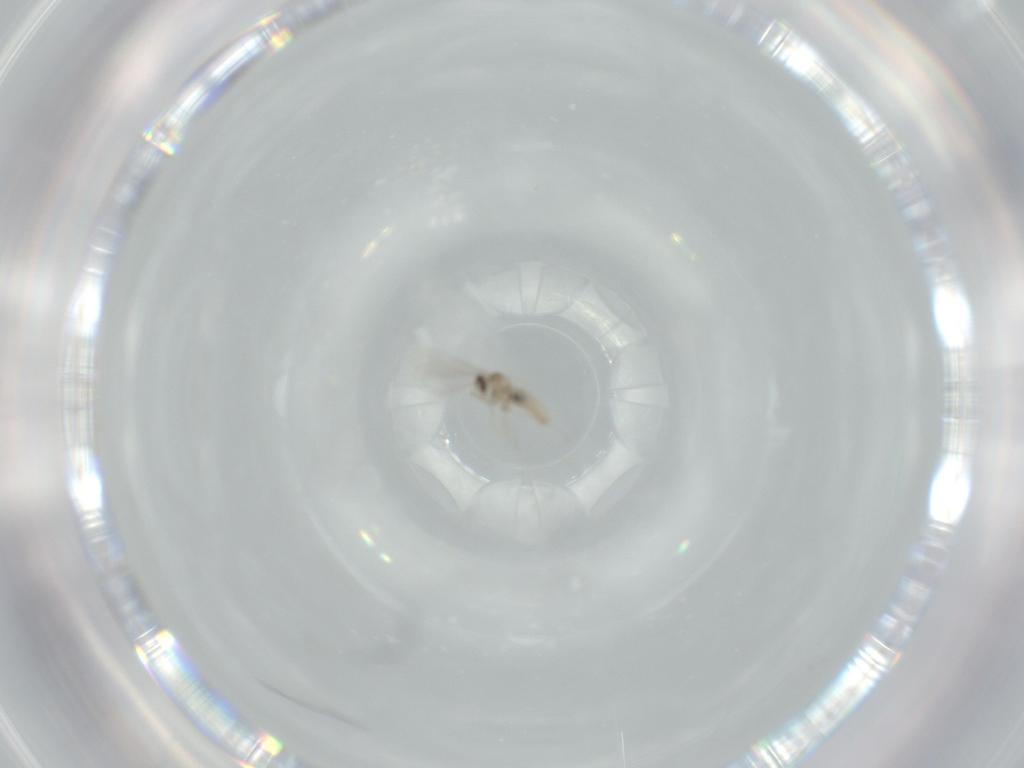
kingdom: Animalia
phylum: Arthropoda
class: Insecta
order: Diptera
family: Cecidomyiidae
